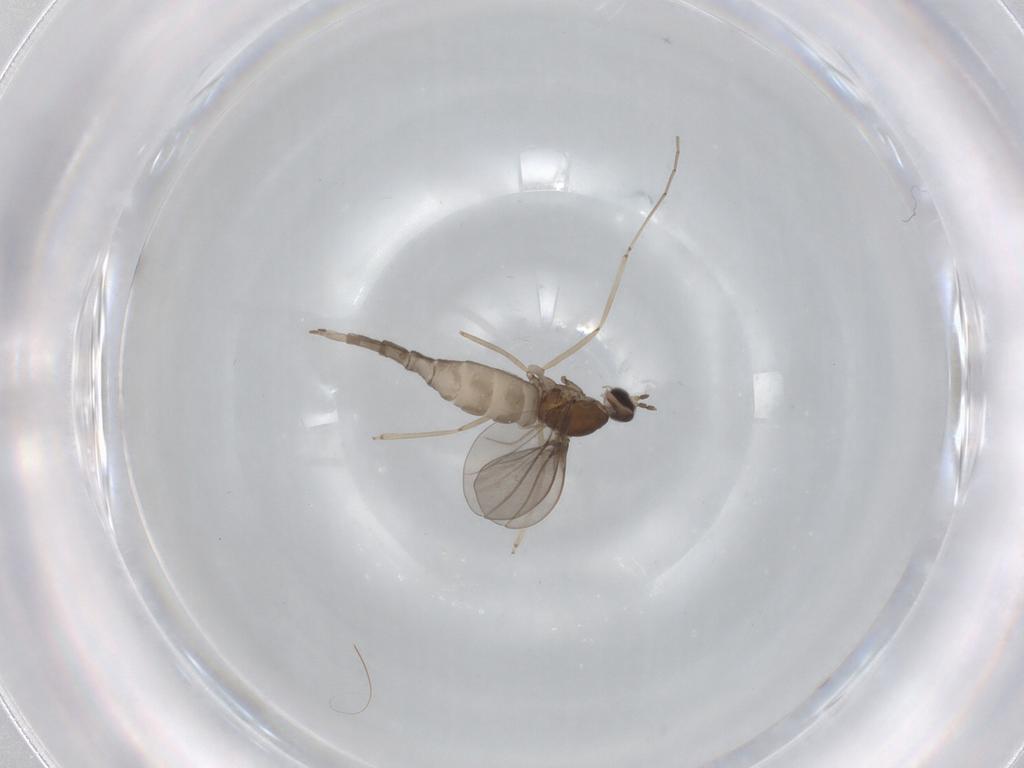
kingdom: Animalia
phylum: Arthropoda
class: Insecta
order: Diptera
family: Cecidomyiidae
